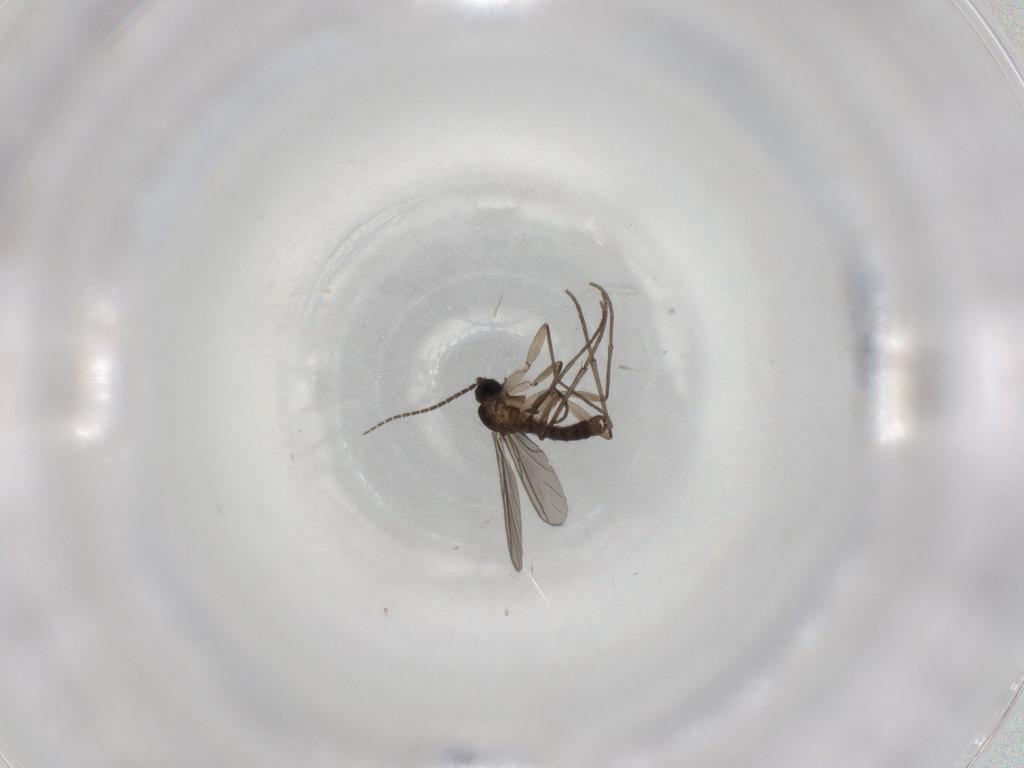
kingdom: Animalia
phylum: Arthropoda
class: Insecta
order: Diptera
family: Sciaridae
